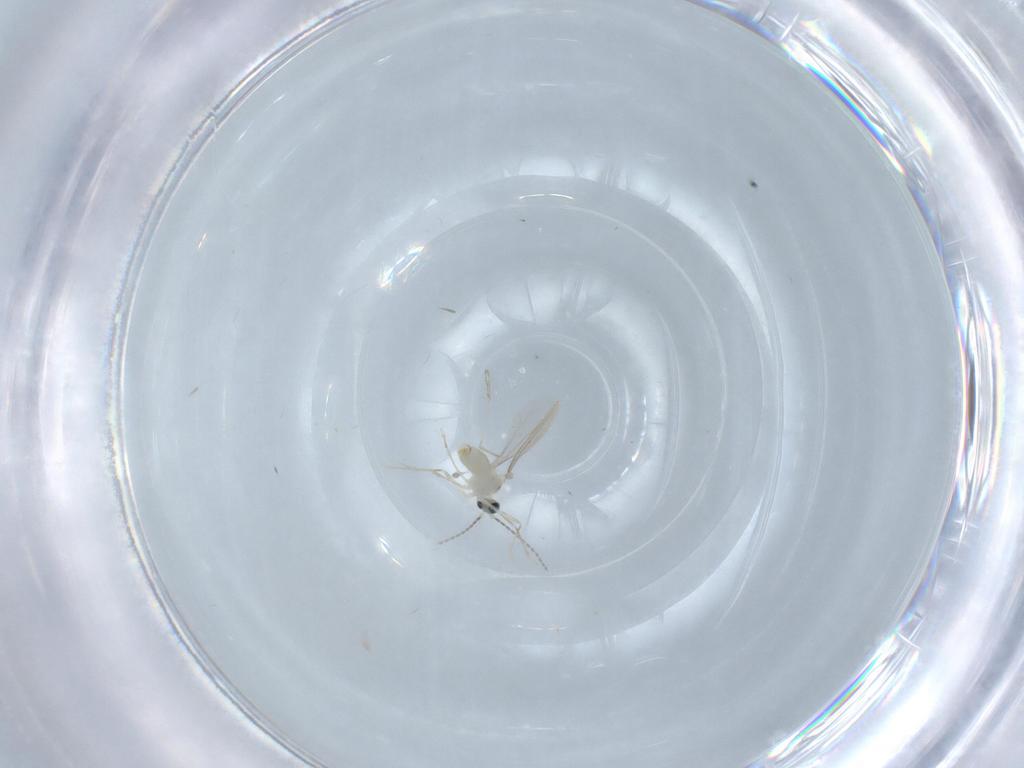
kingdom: Animalia
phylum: Arthropoda
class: Insecta
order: Diptera
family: Cecidomyiidae
